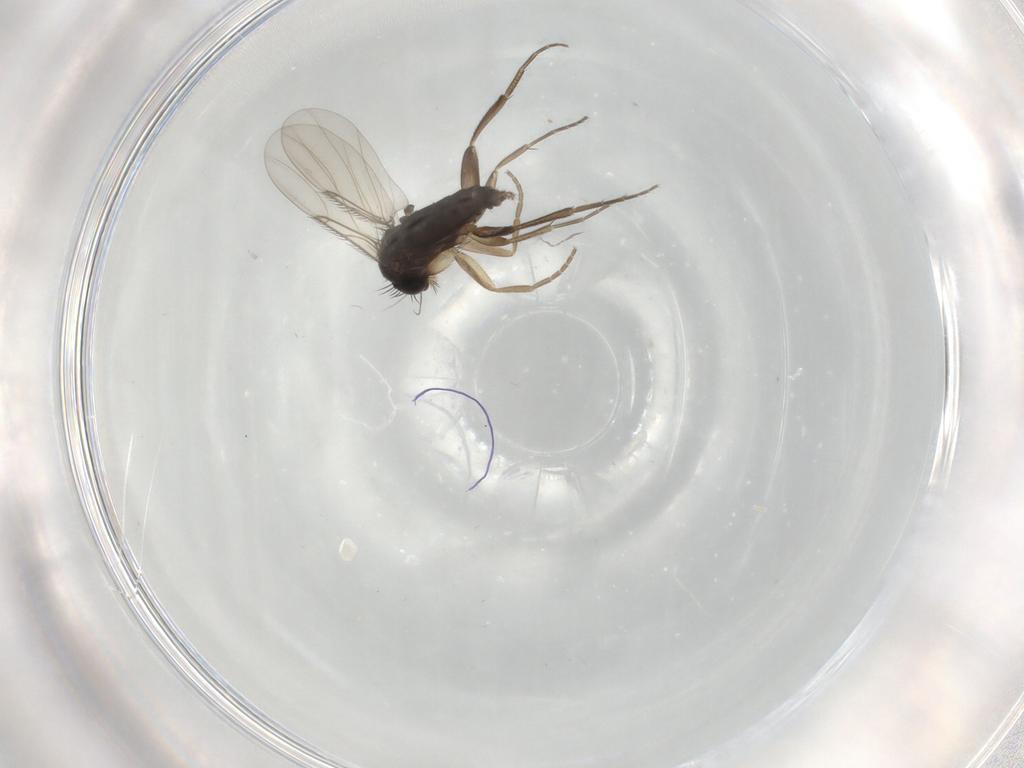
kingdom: Animalia
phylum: Arthropoda
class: Insecta
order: Diptera
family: Phoridae
